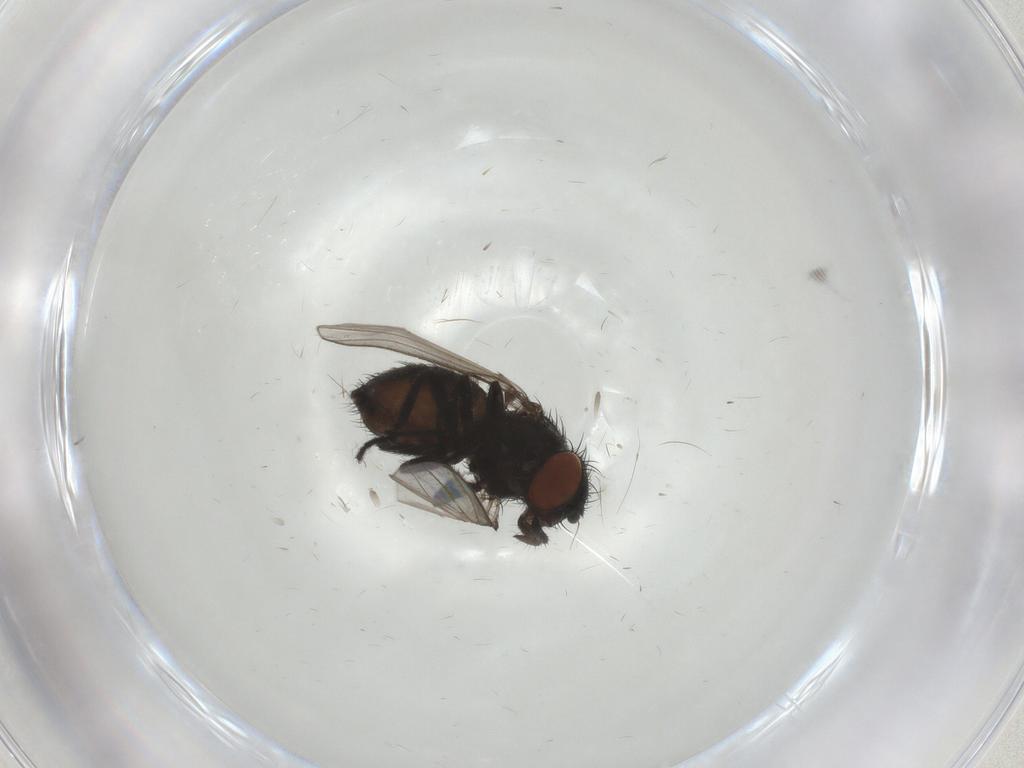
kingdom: Animalia
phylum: Arthropoda
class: Insecta
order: Diptera
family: Milichiidae
